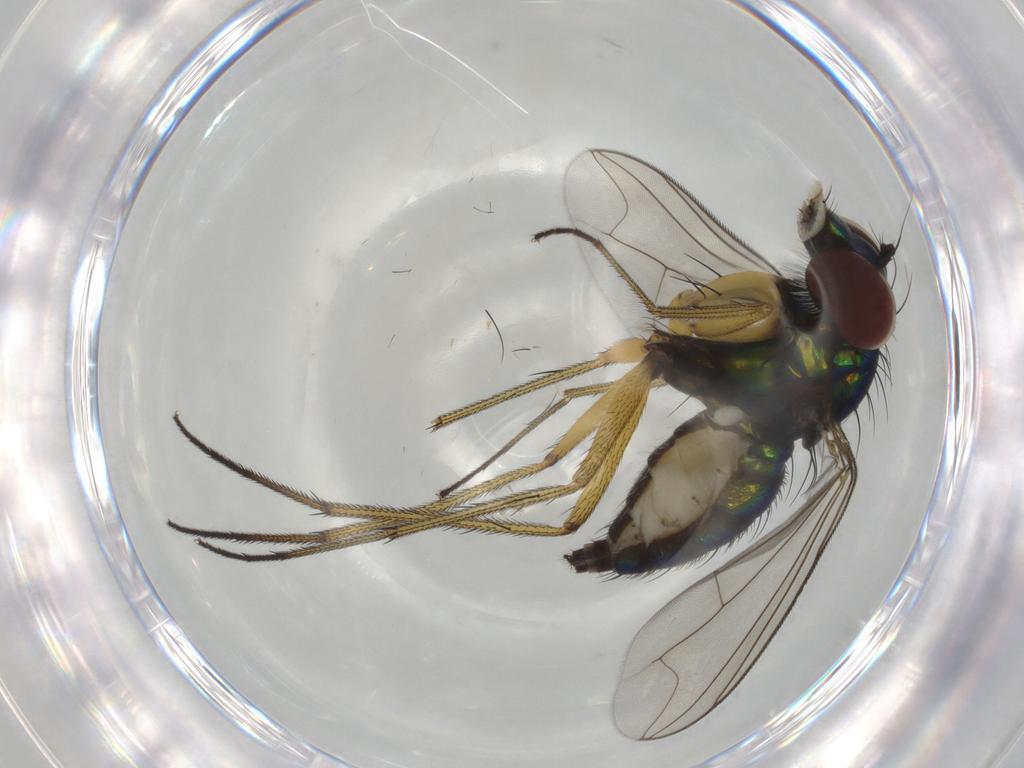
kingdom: Animalia
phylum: Arthropoda
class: Insecta
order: Diptera
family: Dolichopodidae
